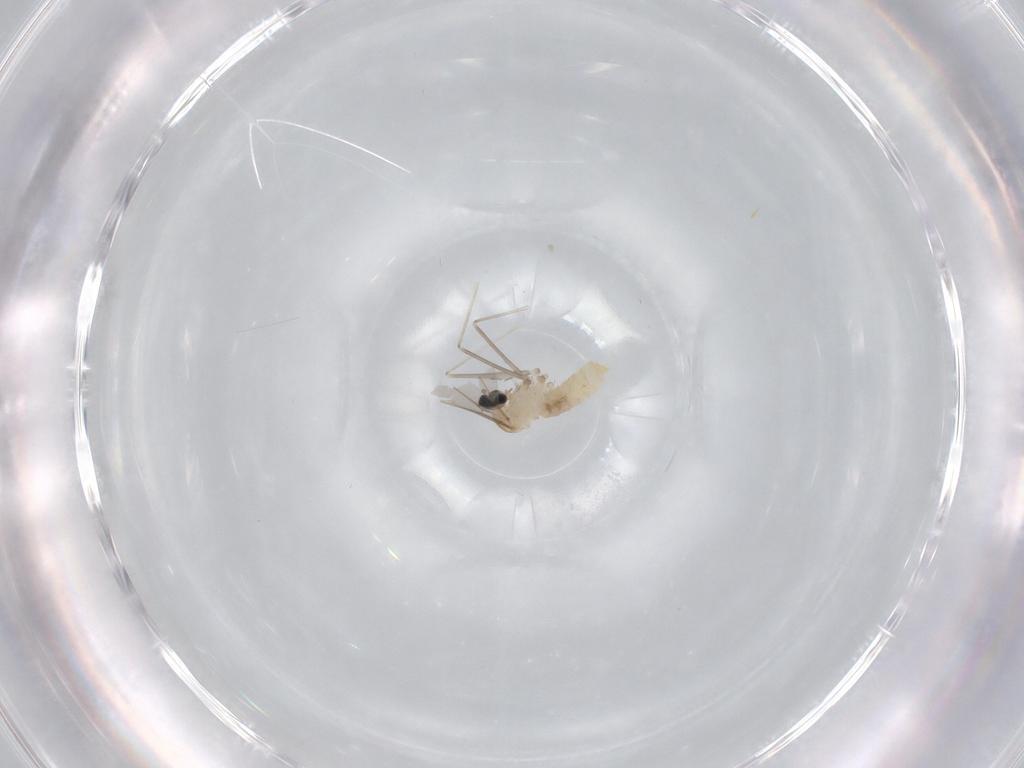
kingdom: Animalia
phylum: Arthropoda
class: Insecta
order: Diptera
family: Cecidomyiidae
